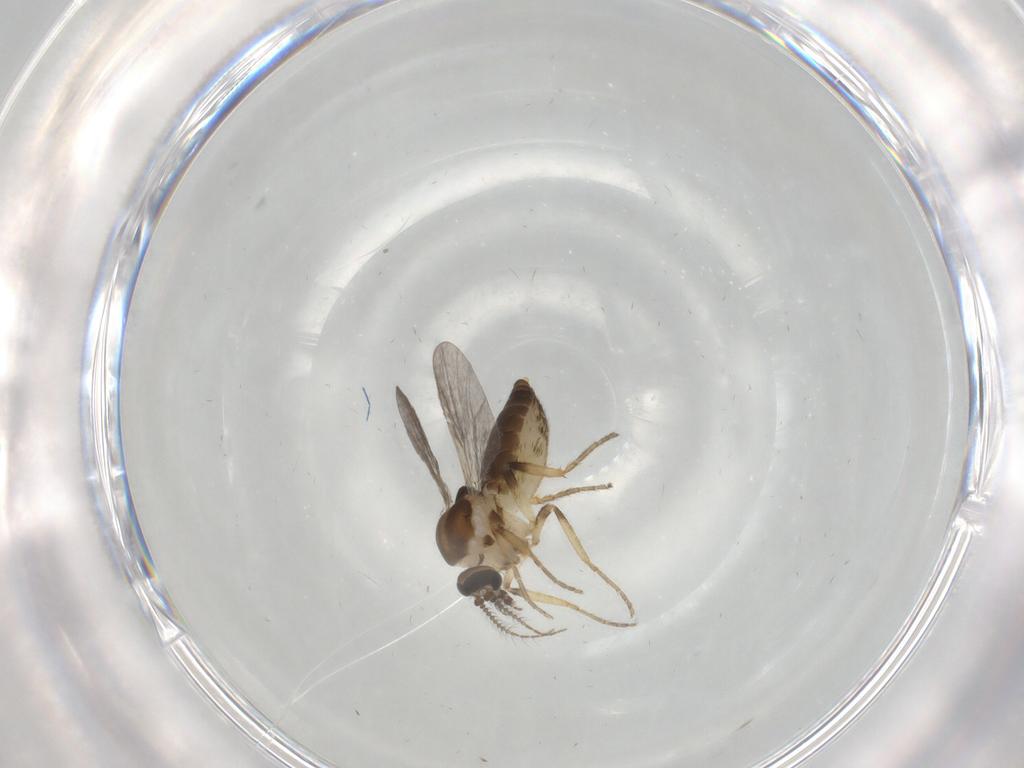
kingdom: Animalia
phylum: Arthropoda
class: Insecta
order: Diptera
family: Ceratopogonidae
